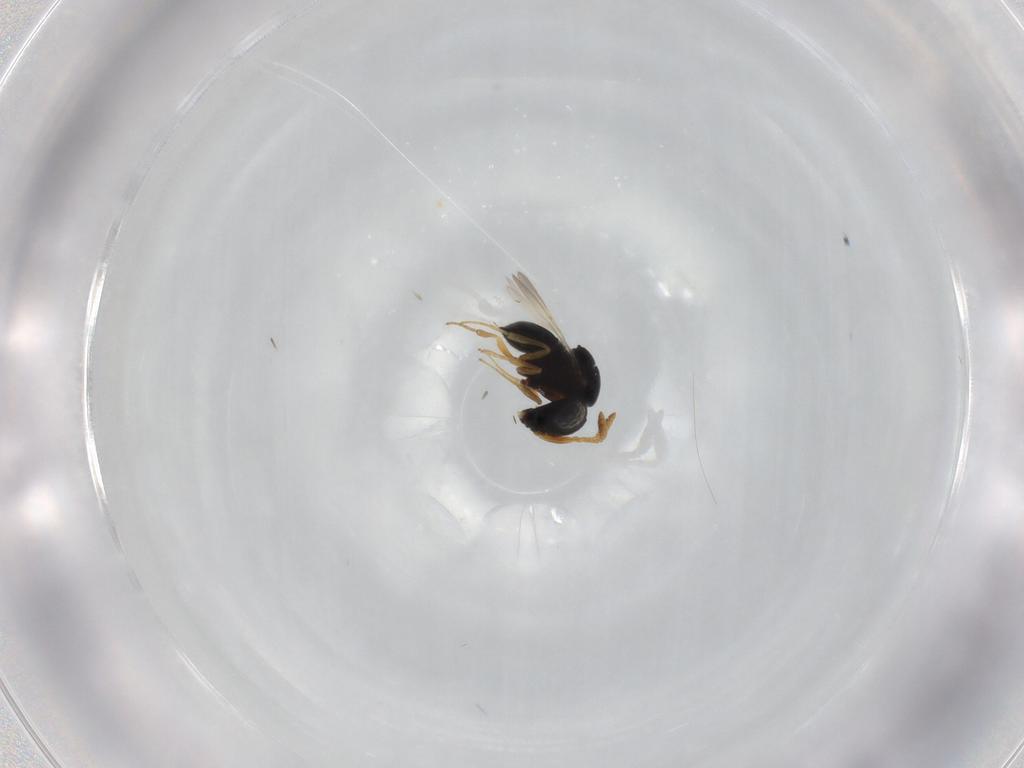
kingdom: Animalia
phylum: Arthropoda
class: Insecta
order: Hymenoptera
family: Scelionidae
